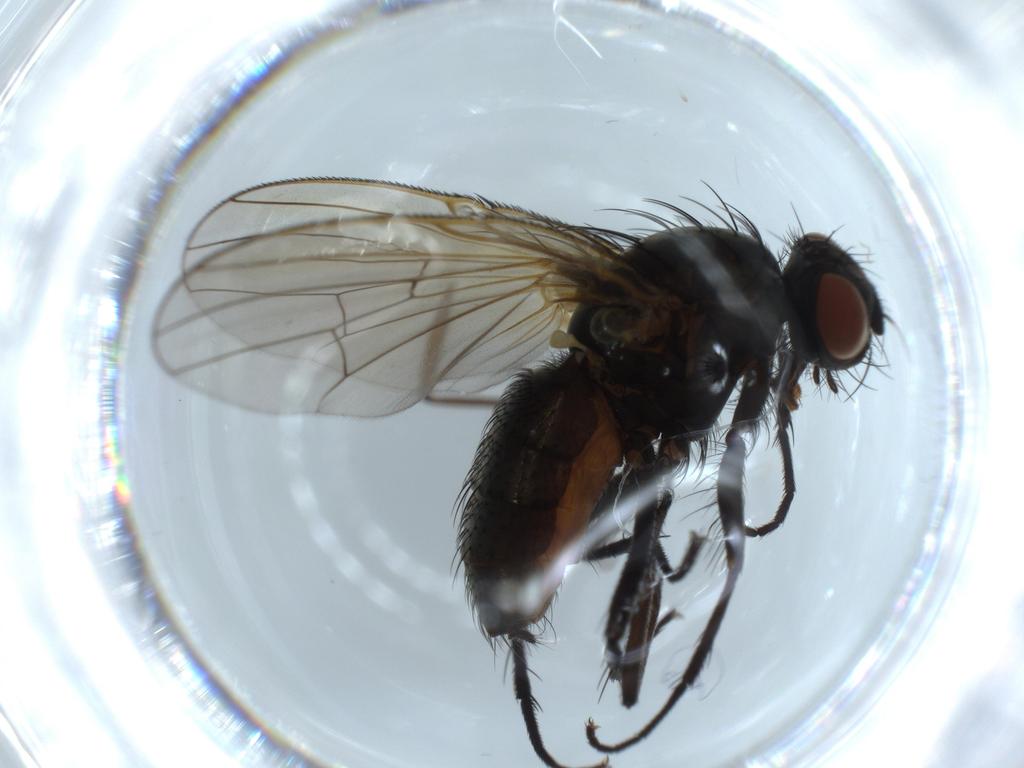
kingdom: Animalia
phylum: Arthropoda
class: Insecta
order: Diptera
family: Anthomyiidae
